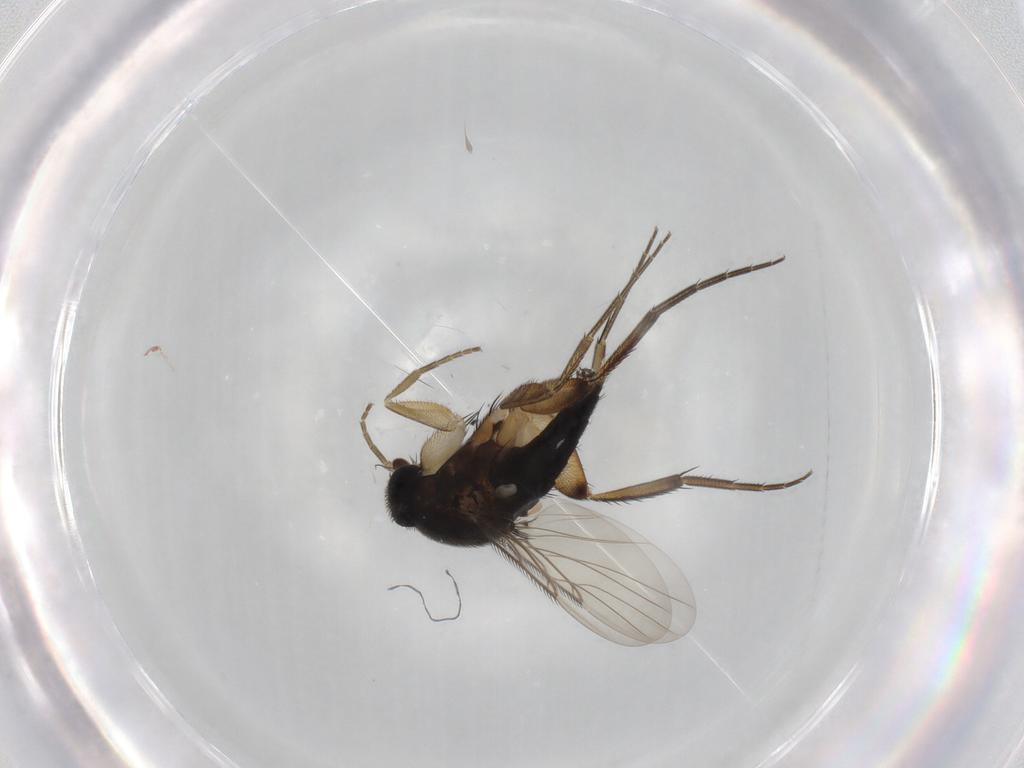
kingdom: Animalia
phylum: Arthropoda
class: Insecta
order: Diptera
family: Phoridae
